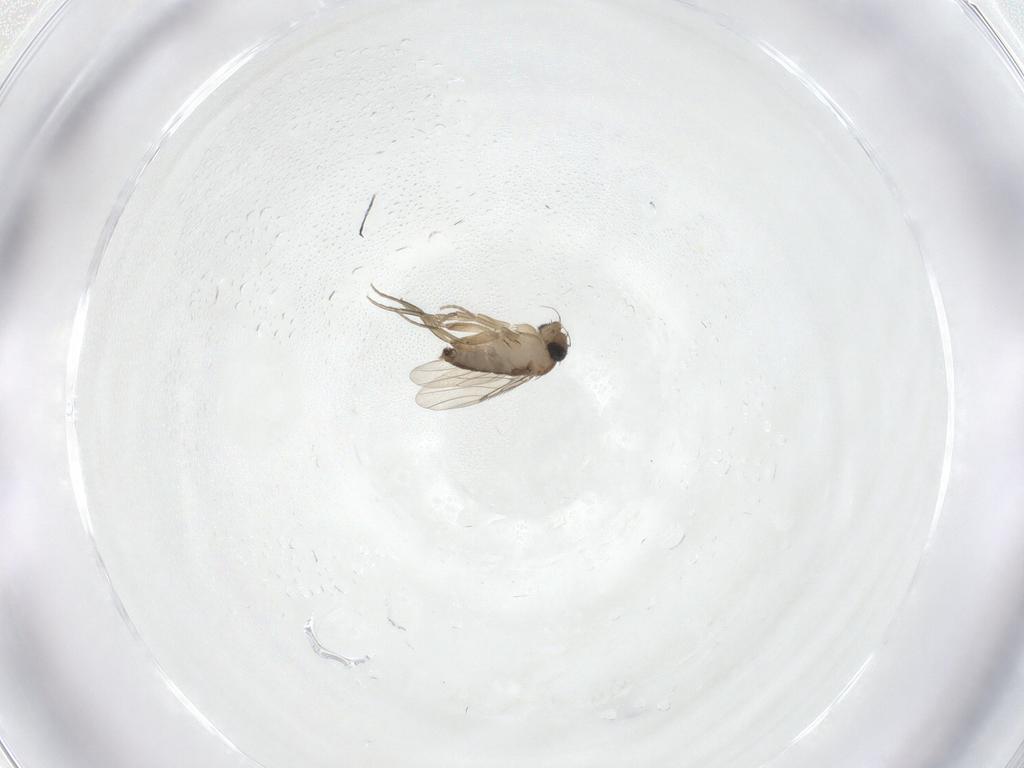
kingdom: Animalia
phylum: Arthropoda
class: Insecta
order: Diptera
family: Phoridae
